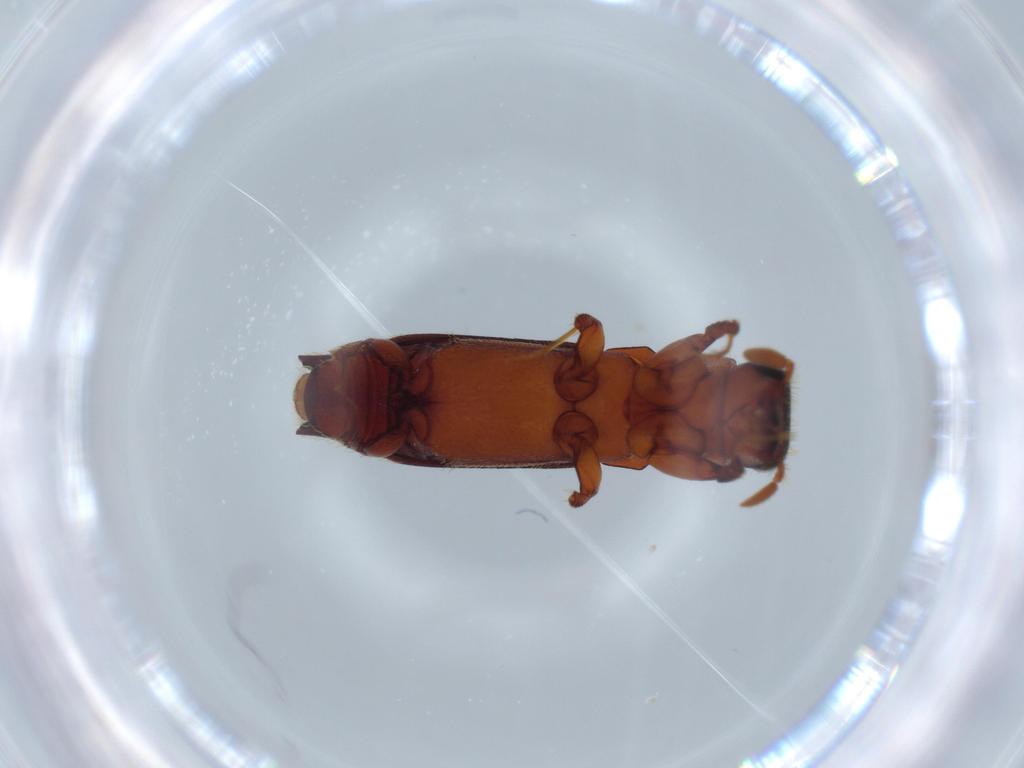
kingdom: Animalia
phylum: Arthropoda
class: Insecta
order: Coleoptera
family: Curculionidae
